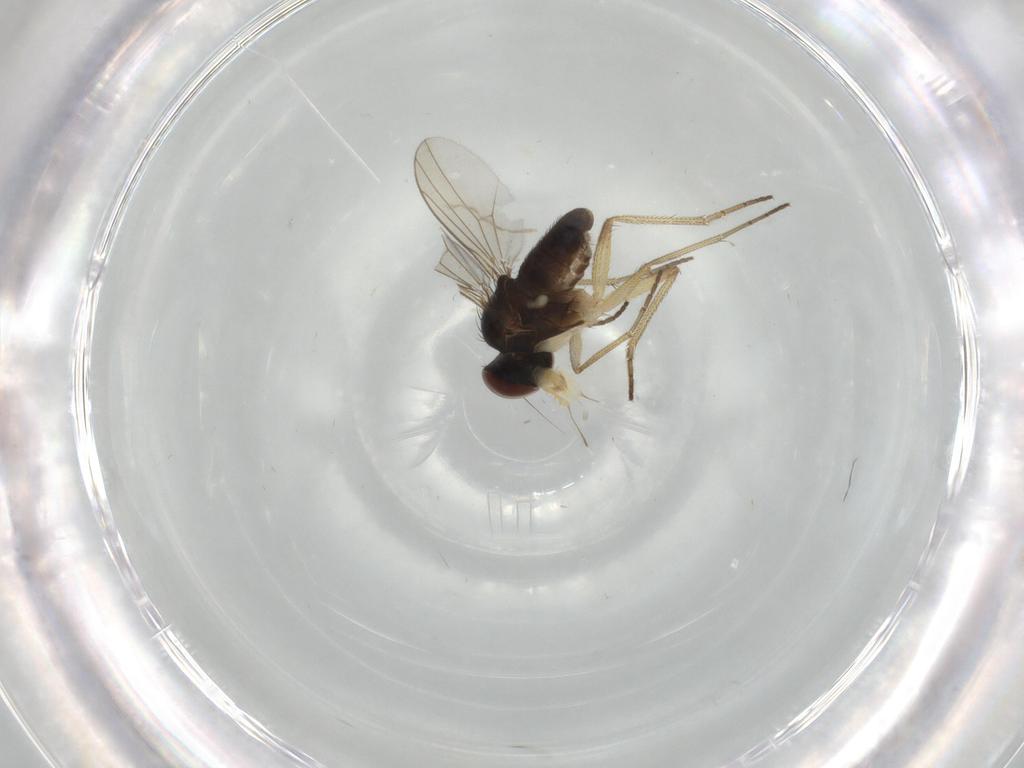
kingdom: Animalia
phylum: Arthropoda
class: Insecta
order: Diptera
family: Dolichopodidae
